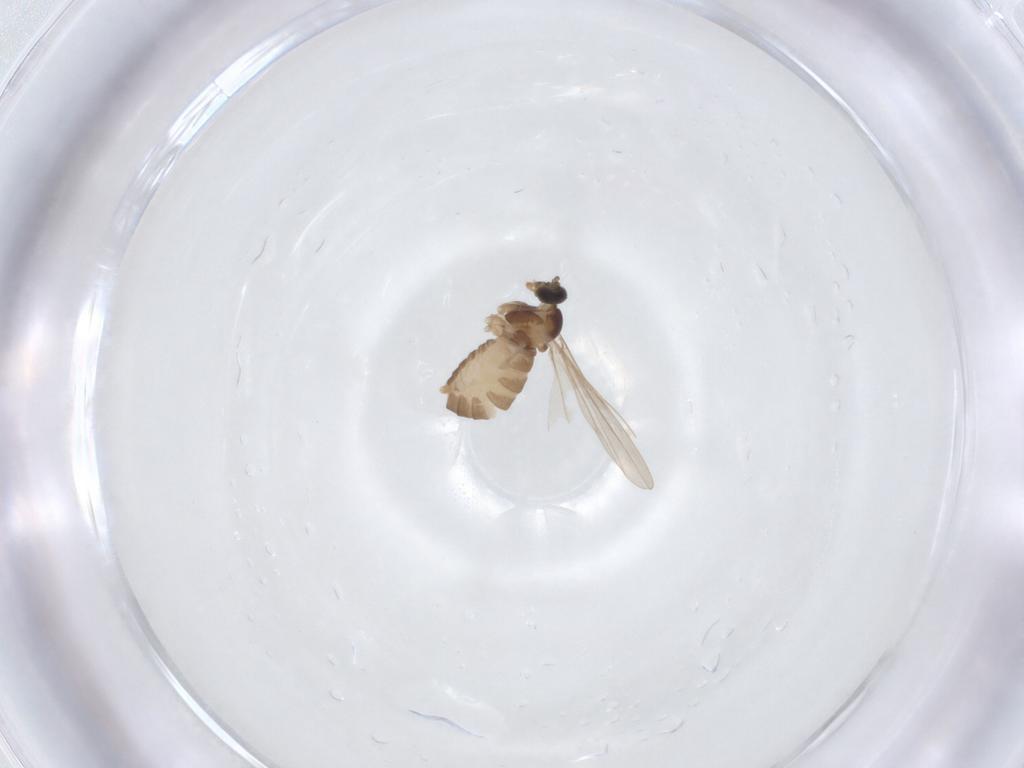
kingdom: Animalia
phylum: Arthropoda
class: Insecta
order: Diptera
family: Cecidomyiidae
